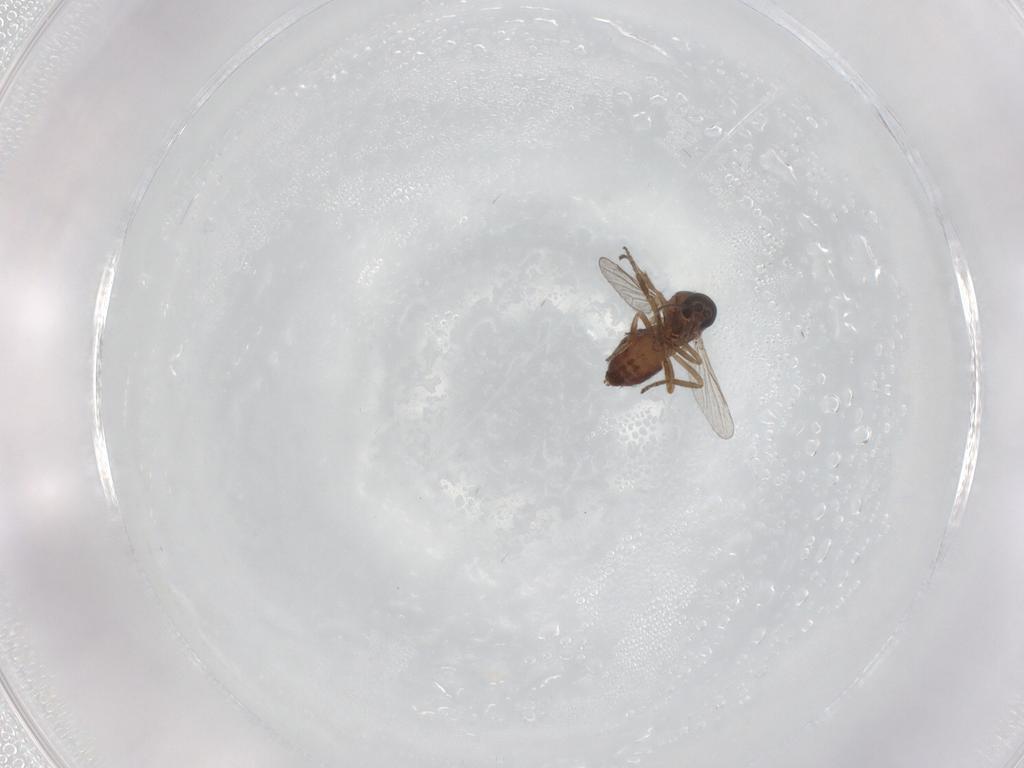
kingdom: Animalia
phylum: Arthropoda
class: Insecta
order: Diptera
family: Ceratopogonidae
